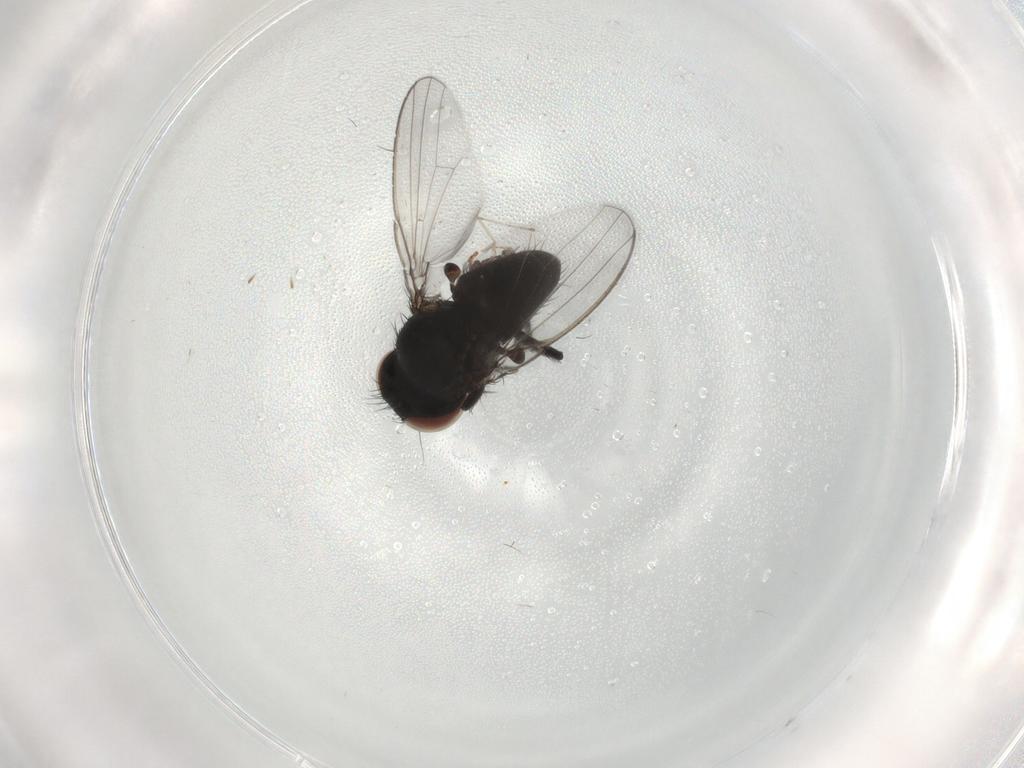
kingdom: Animalia
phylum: Arthropoda
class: Insecta
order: Diptera
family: Milichiidae
